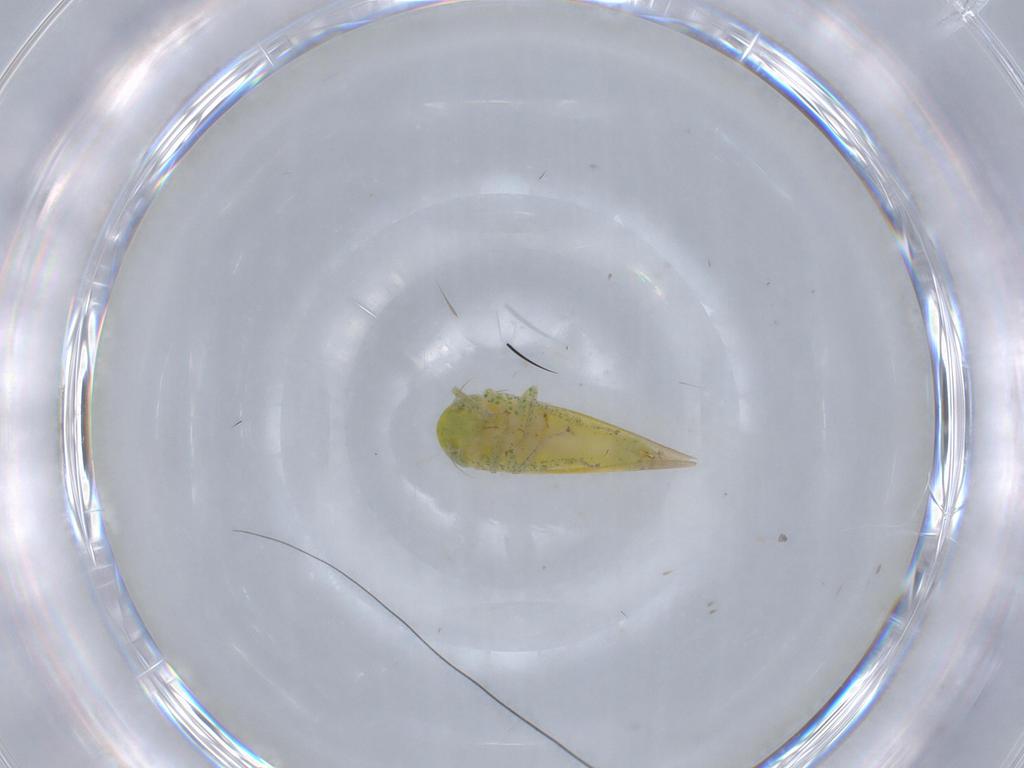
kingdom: Animalia
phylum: Arthropoda
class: Insecta
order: Hemiptera
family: Cicadellidae
